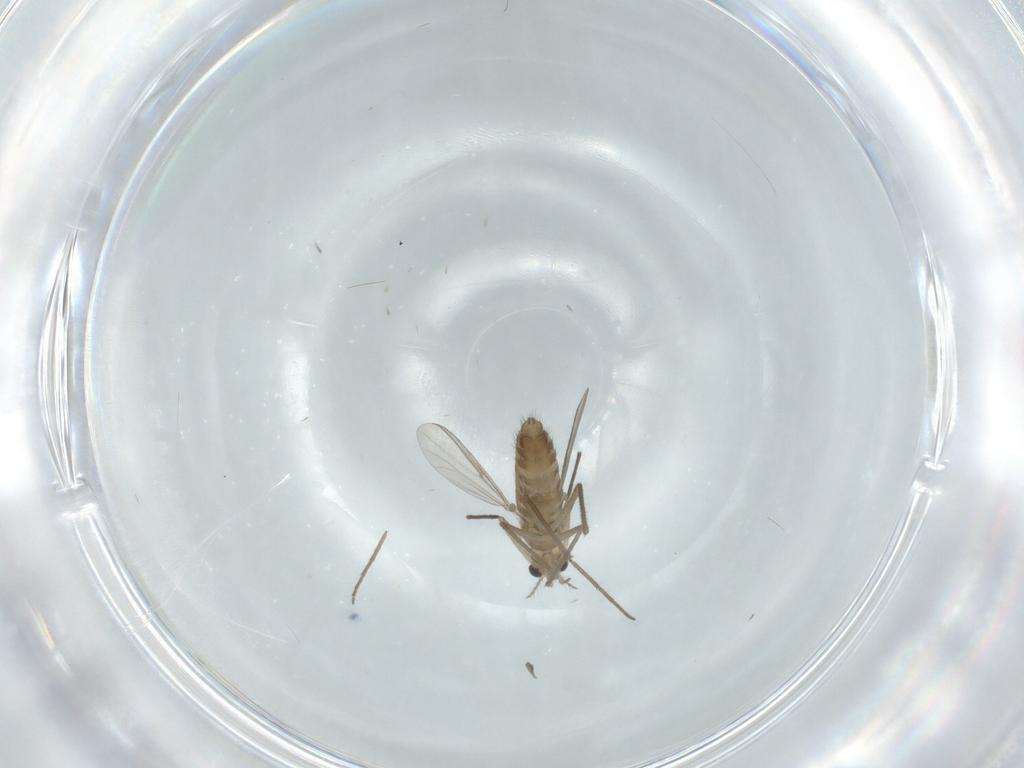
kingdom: Animalia
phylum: Arthropoda
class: Insecta
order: Diptera
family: Chironomidae
